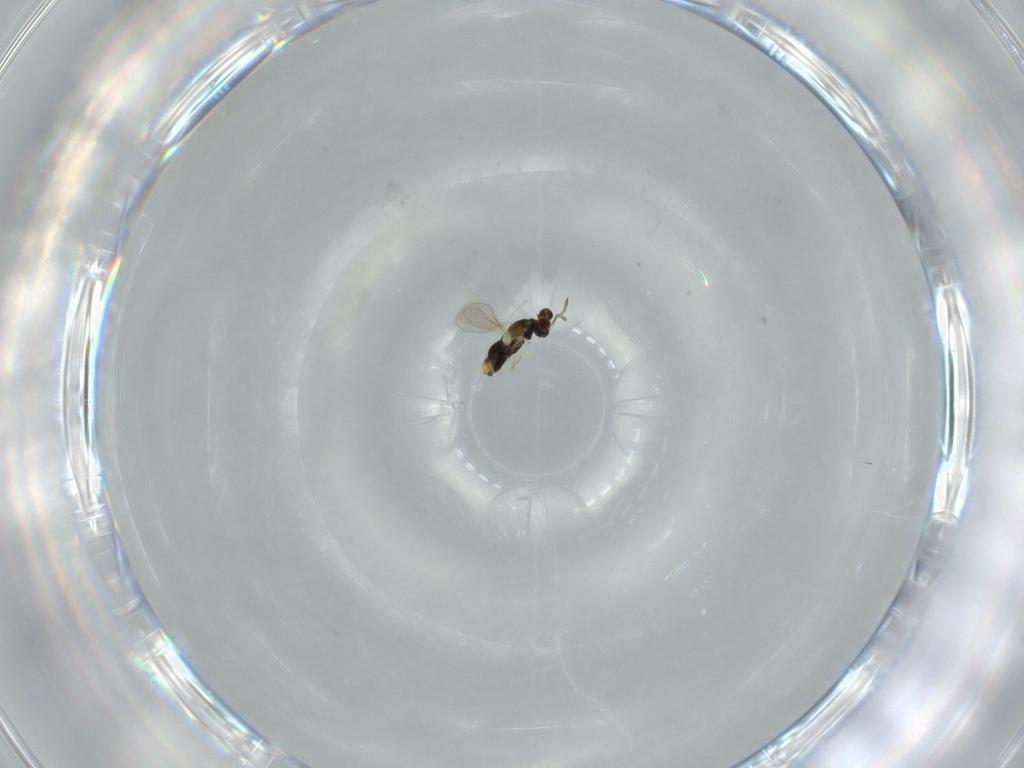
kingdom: Animalia
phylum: Arthropoda
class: Insecta
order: Hymenoptera
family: Aphelinidae
